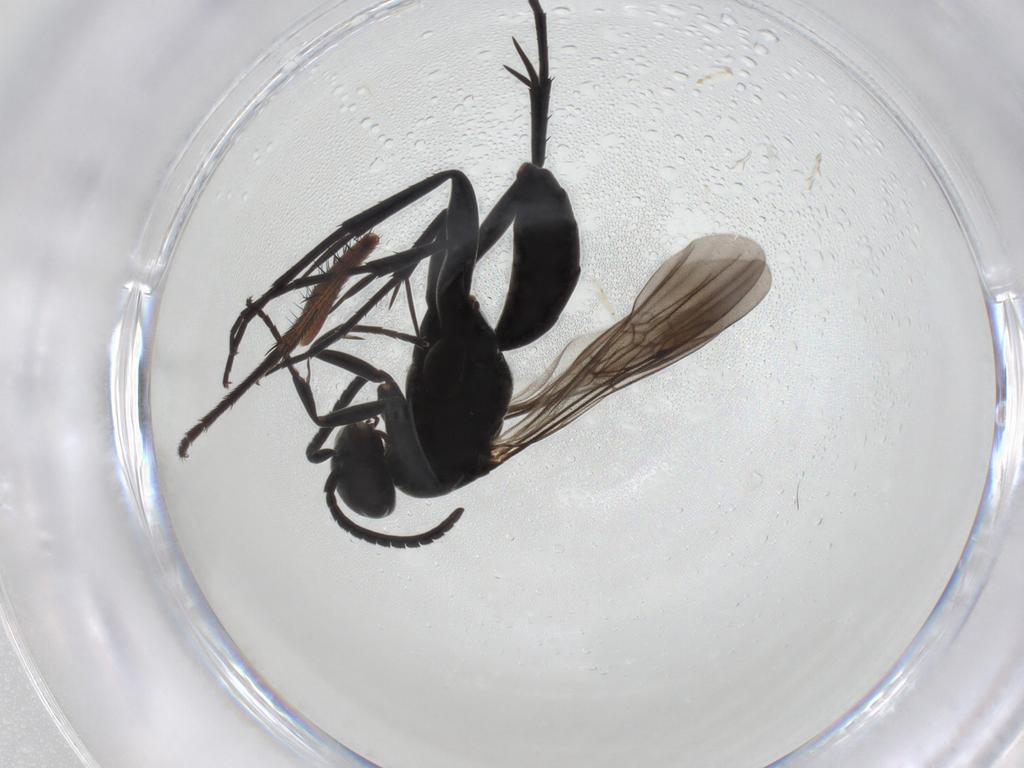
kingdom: Animalia
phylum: Arthropoda
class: Insecta
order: Hymenoptera
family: Pompilidae
